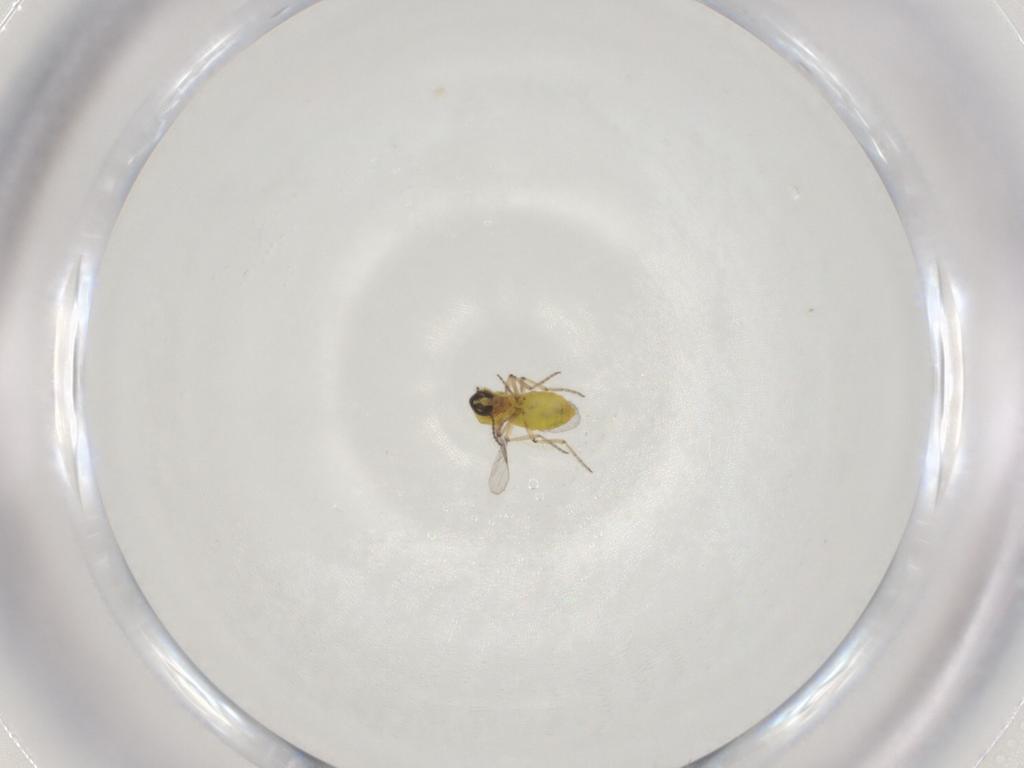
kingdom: Animalia
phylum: Arthropoda
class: Insecta
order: Diptera
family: Ceratopogonidae
